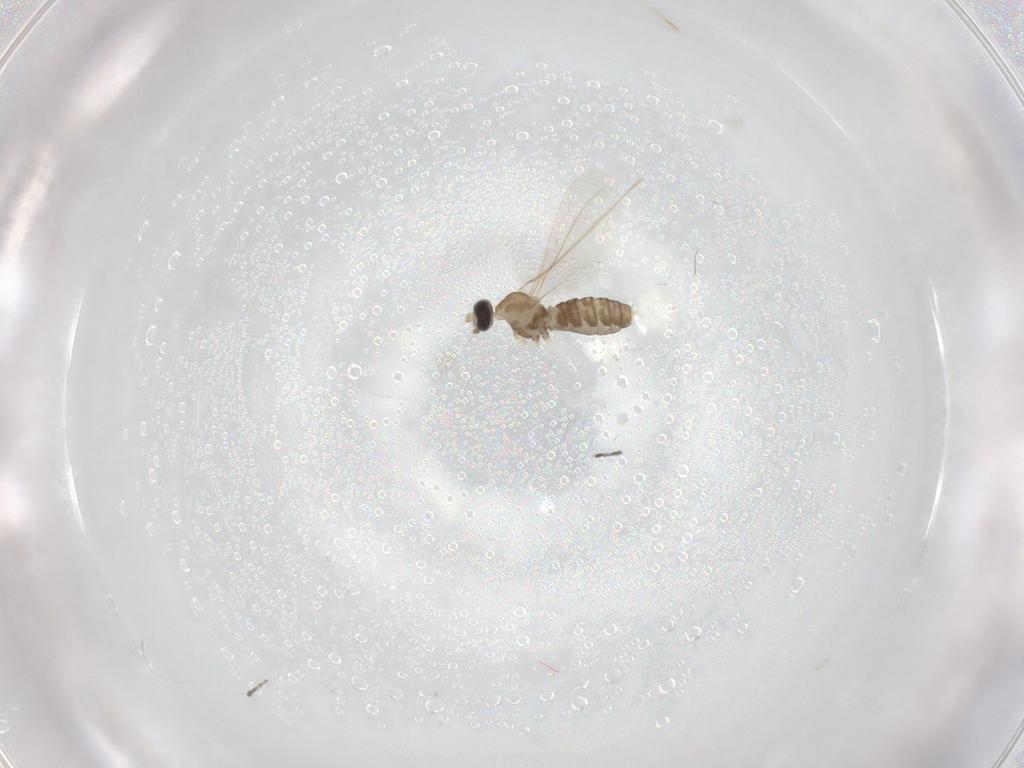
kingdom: Animalia
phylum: Arthropoda
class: Insecta
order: Diptera
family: Cecidomyiidae
